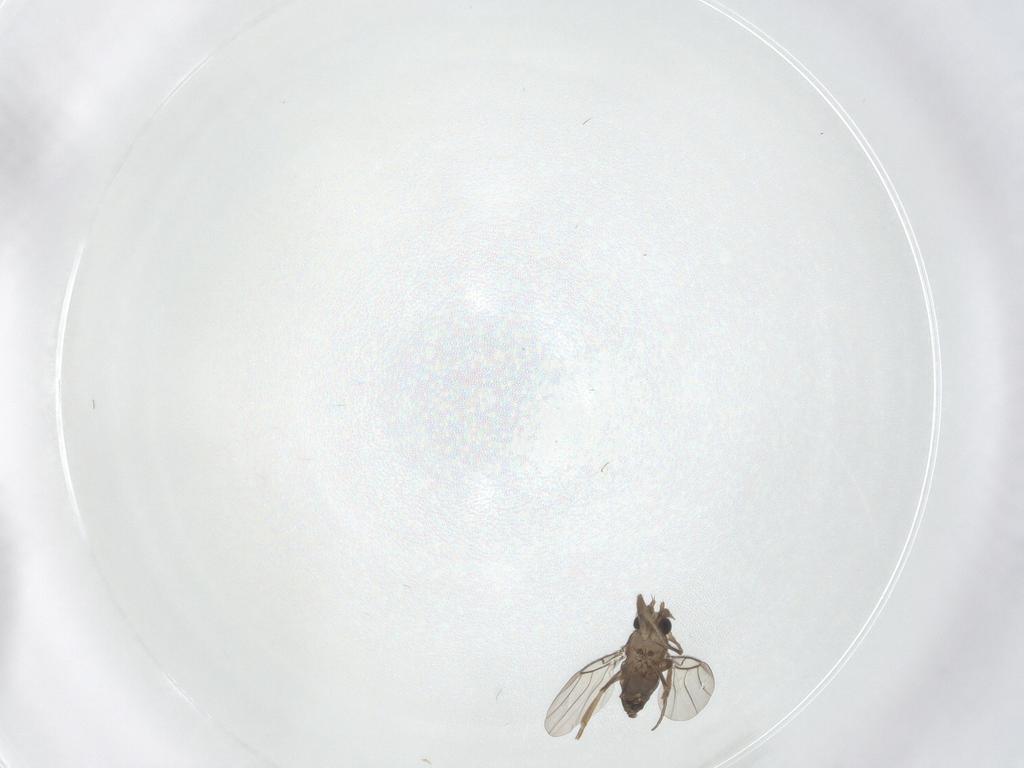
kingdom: Animalia
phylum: Arthropoda
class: Insecta
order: Diptera
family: Phoridae
